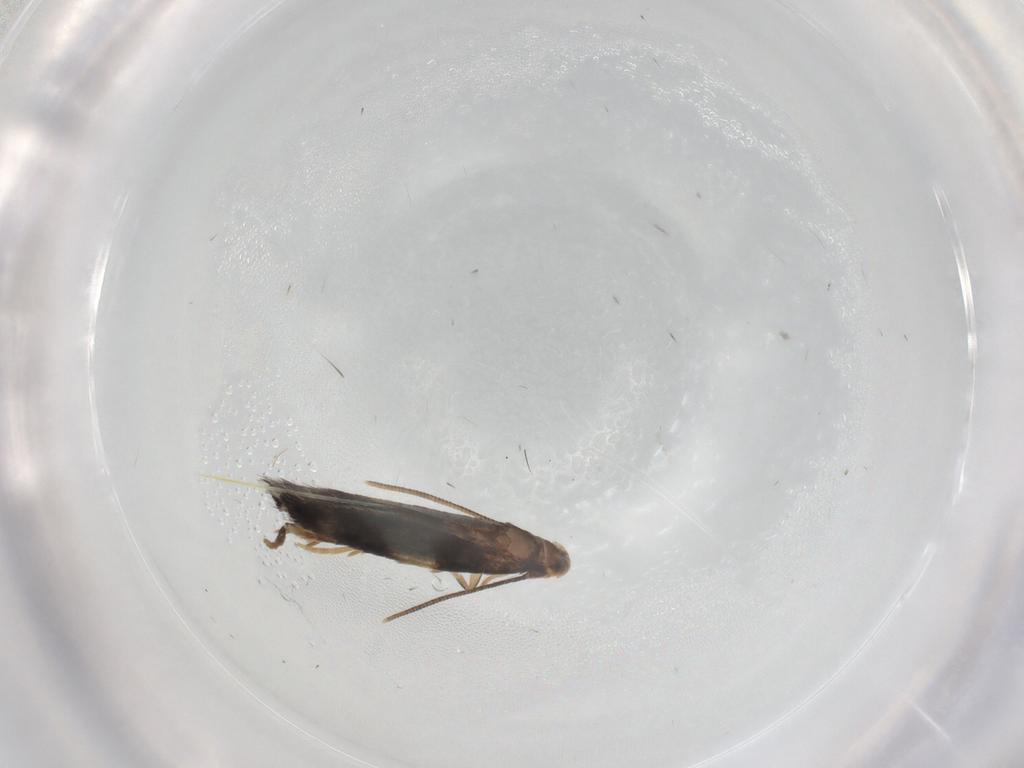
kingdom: Animalia
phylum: Arthropoda
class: Insecta
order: Lepidoptera
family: Gelechiidae
